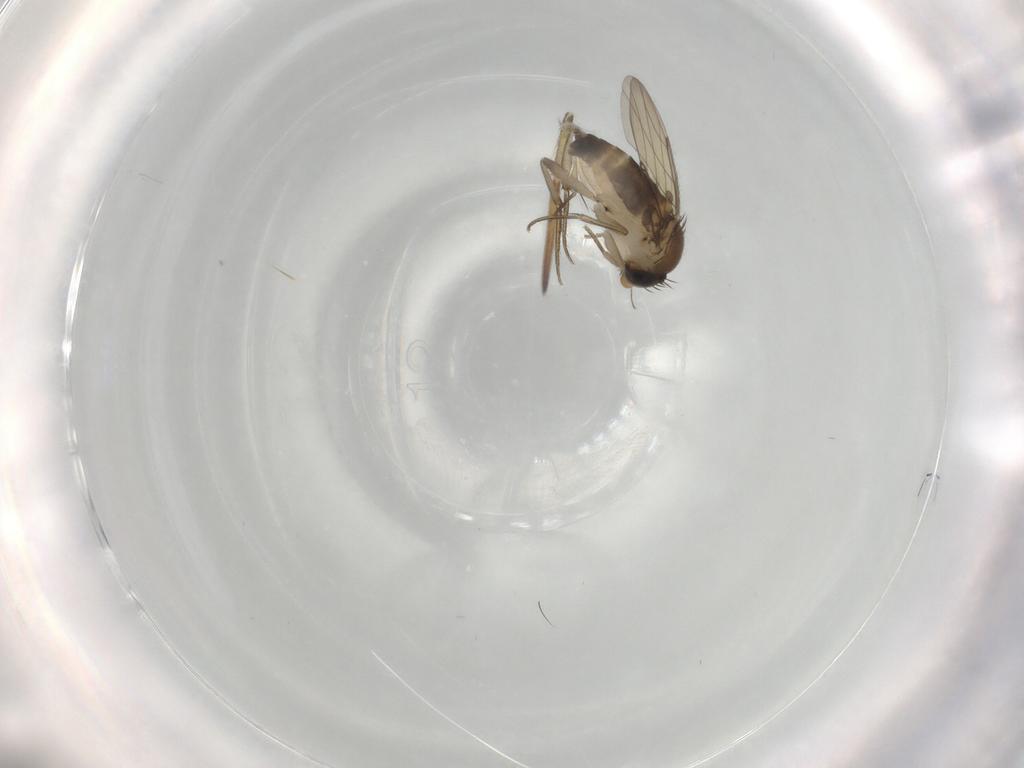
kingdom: Animalia
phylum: Arthropoda
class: Insecta
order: Diptera
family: Phoridae
